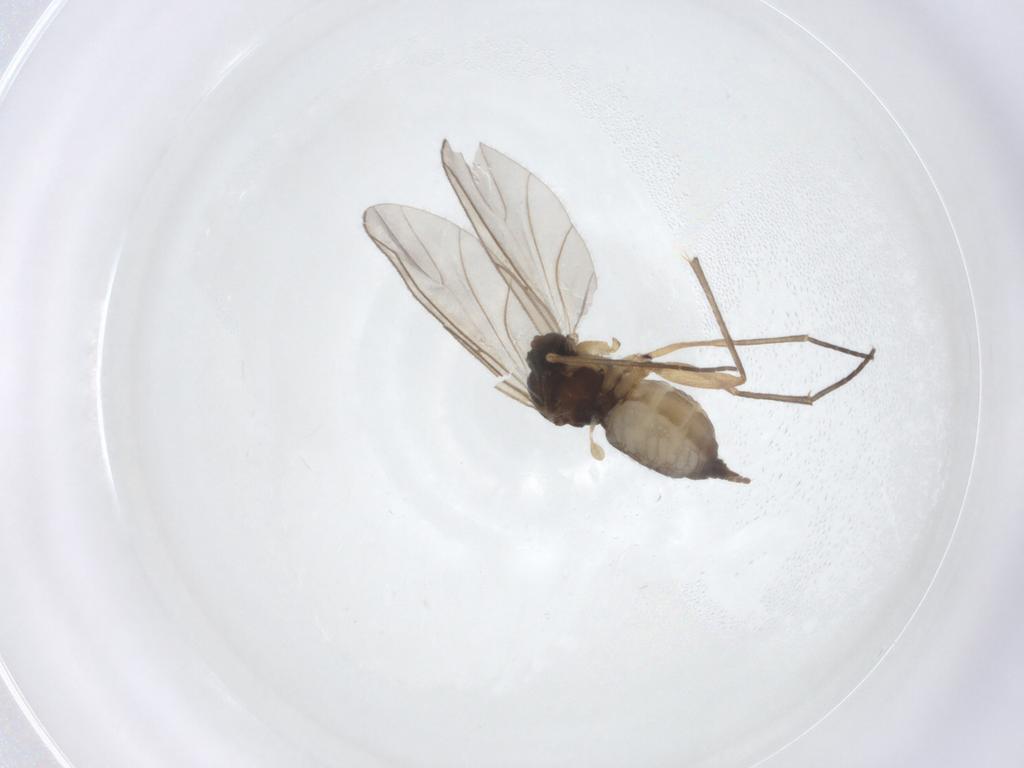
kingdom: Animalia
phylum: Arthropoda
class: Insecta
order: Diptera
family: Sciaridae
